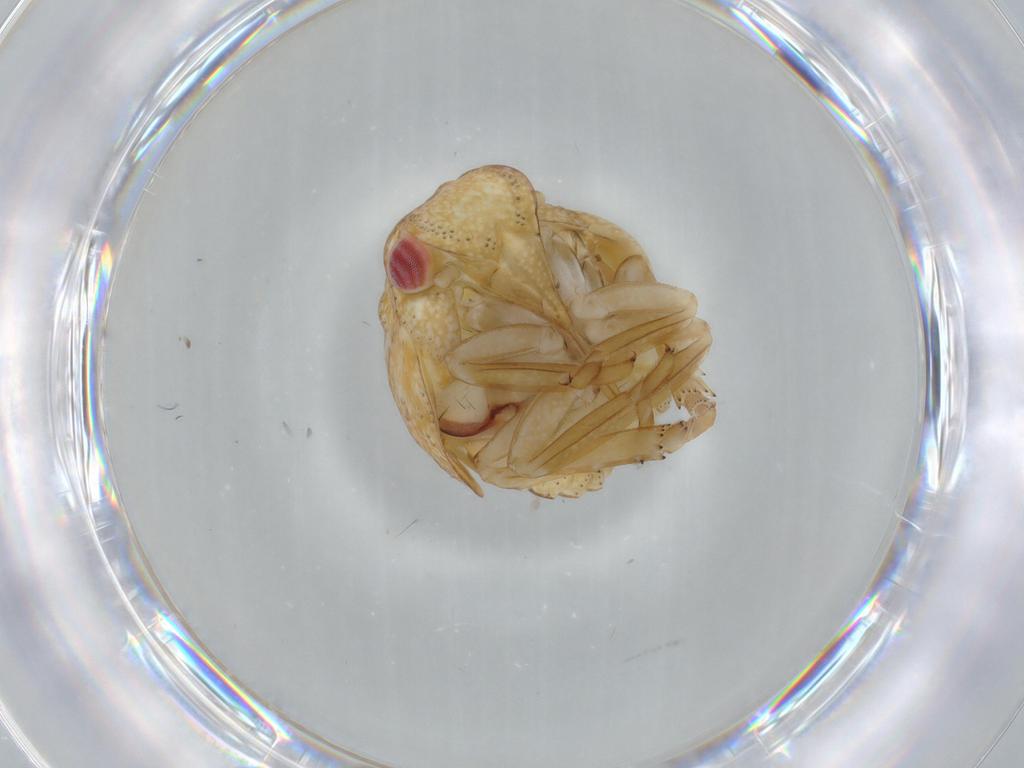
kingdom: Animalia
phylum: Arthropoda
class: Insecta
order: Hemiptera
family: Acanaloniidae
